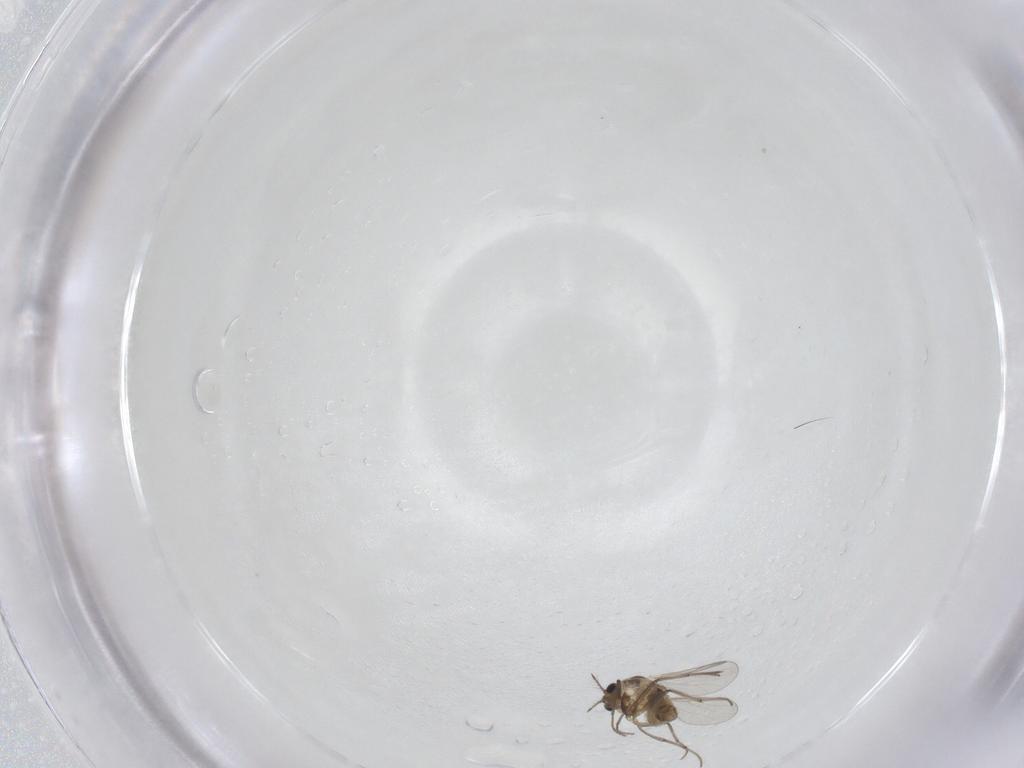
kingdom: Animalia
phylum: Arthropoda
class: Insecta
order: Diptera
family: Chironomidae
